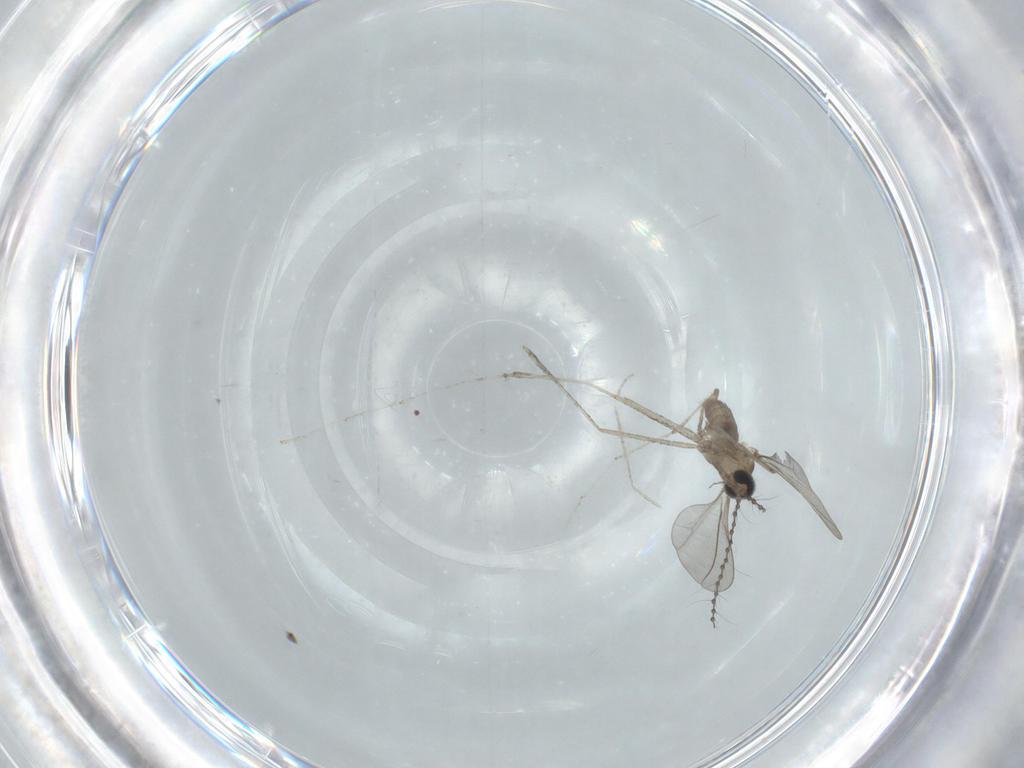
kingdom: Animalia
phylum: Arthropoda
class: Insecta
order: Diptera
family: Cecidomyiidae
